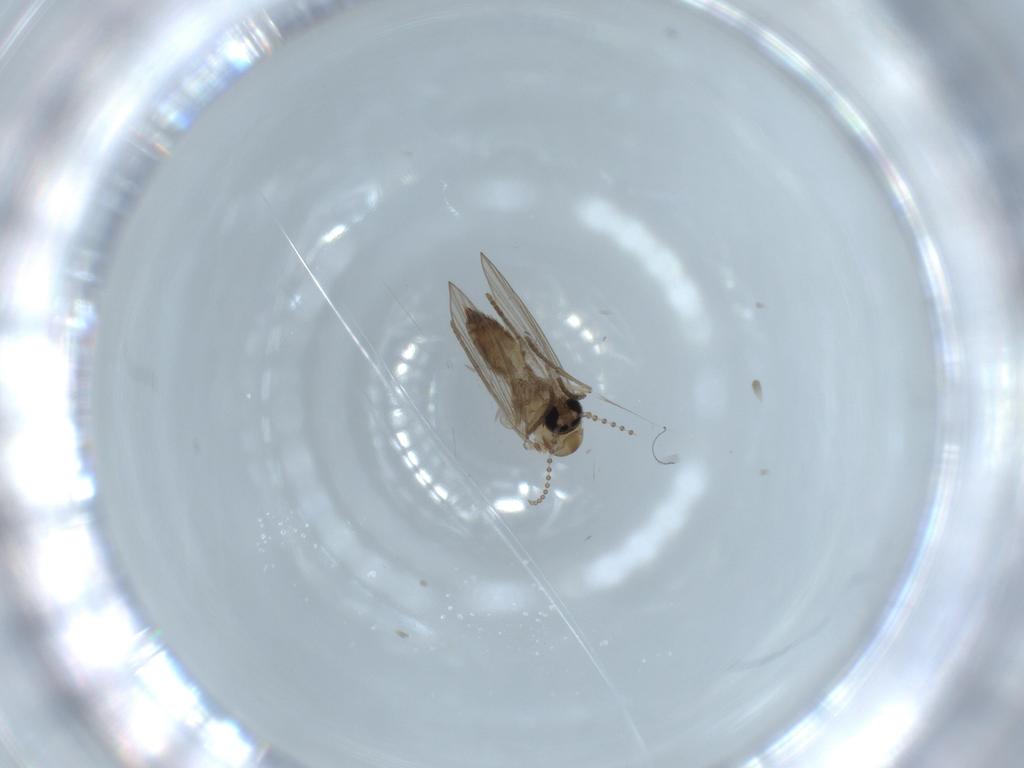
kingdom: Animalia
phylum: Arthropoda
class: Insecta
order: Diptera
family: Psychodidae
